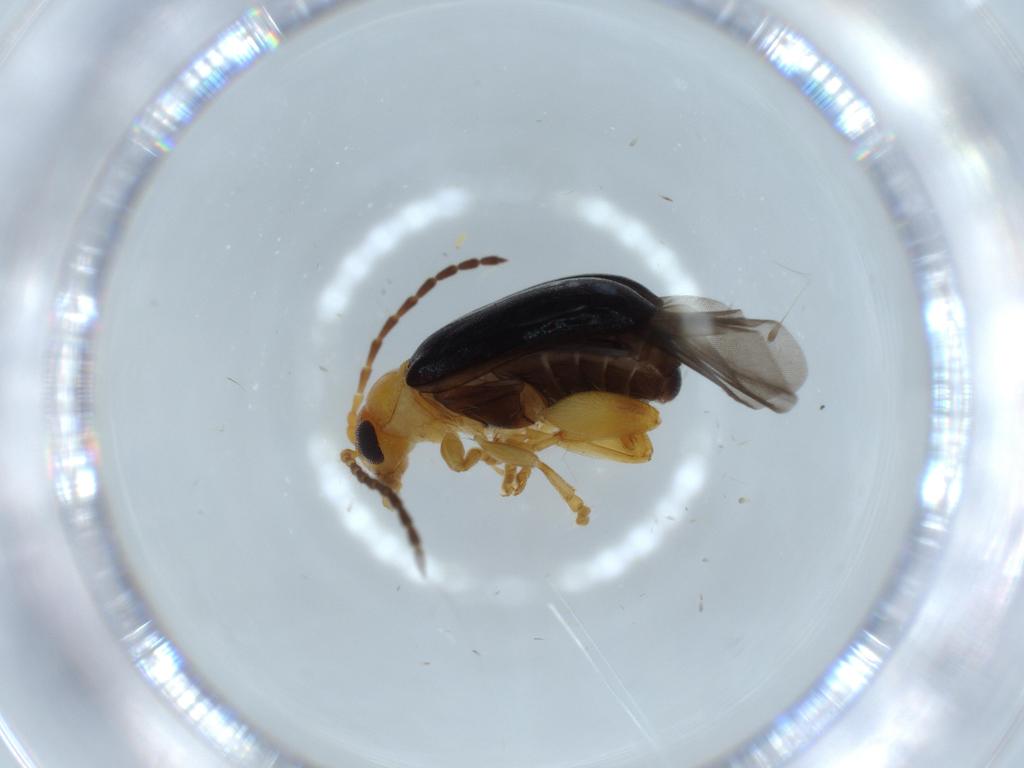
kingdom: Animalia
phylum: Arthropoda
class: Insecta
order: Coleoptera
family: Chrysomelidae
